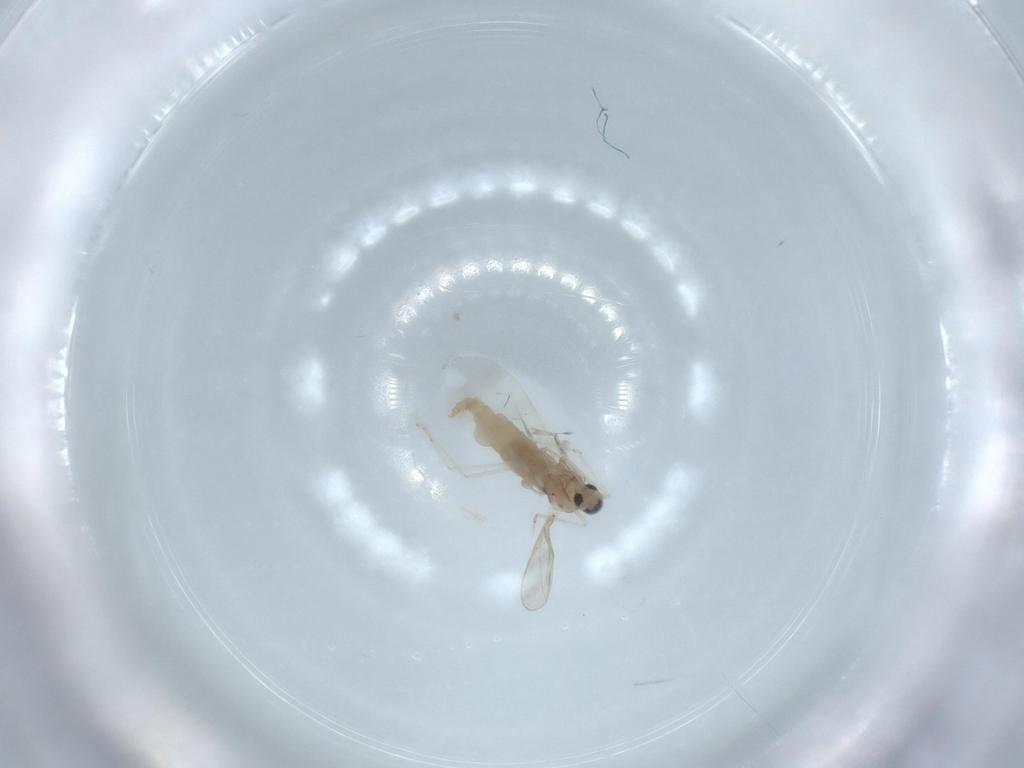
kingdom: Animalia
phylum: Arthropoda
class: Insecta
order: Diptera
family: Cecidomyiidae
